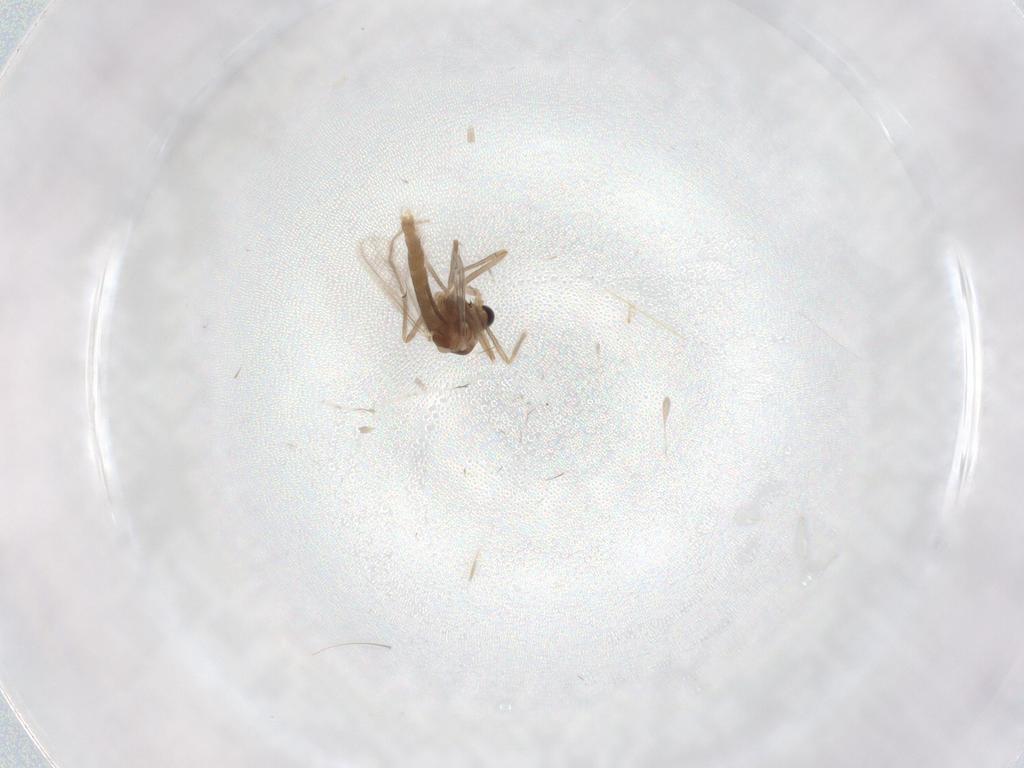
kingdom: Animalia
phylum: Arthropoda
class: Insecta
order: Diptera
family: Chironomidae
